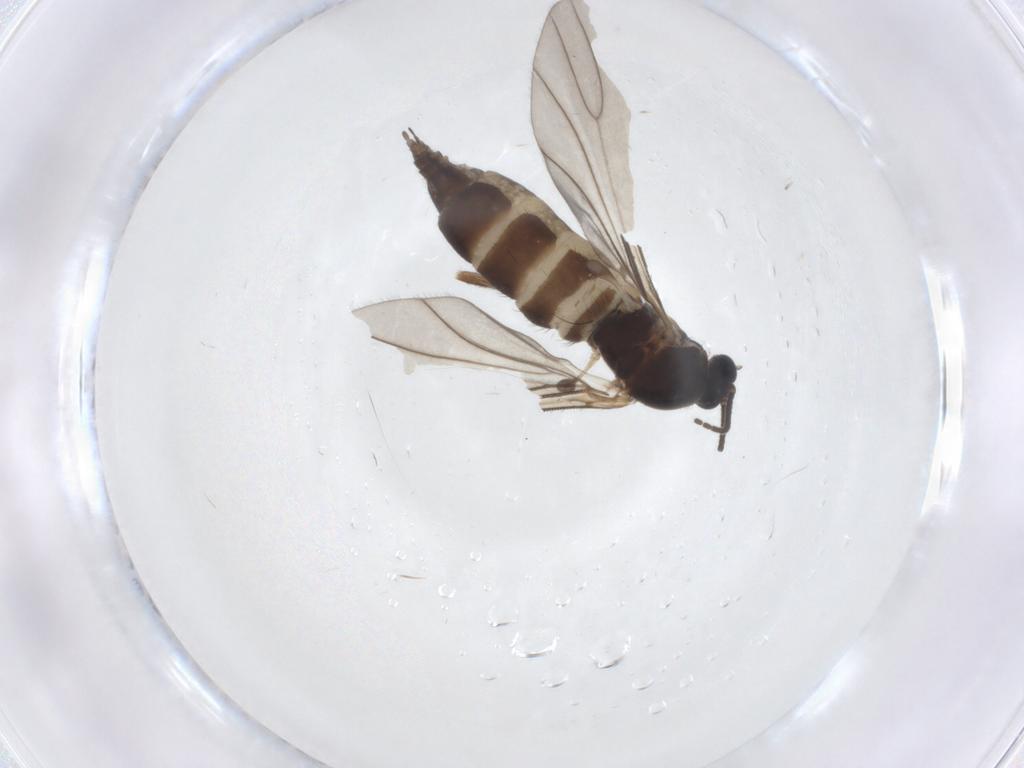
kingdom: Animalia
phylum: Arthropoda
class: Insecta
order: Diptera
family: Sciaridae
